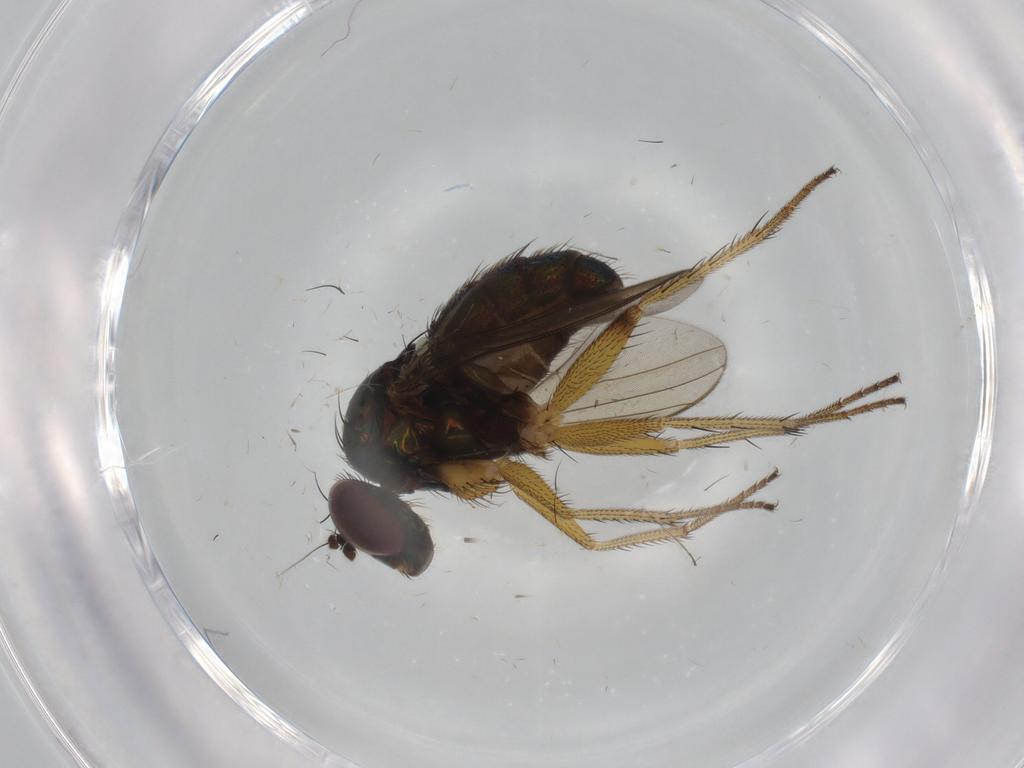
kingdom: Animalia
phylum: Arthropoda
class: Insecta
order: Diptera
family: Dolichopodidae
